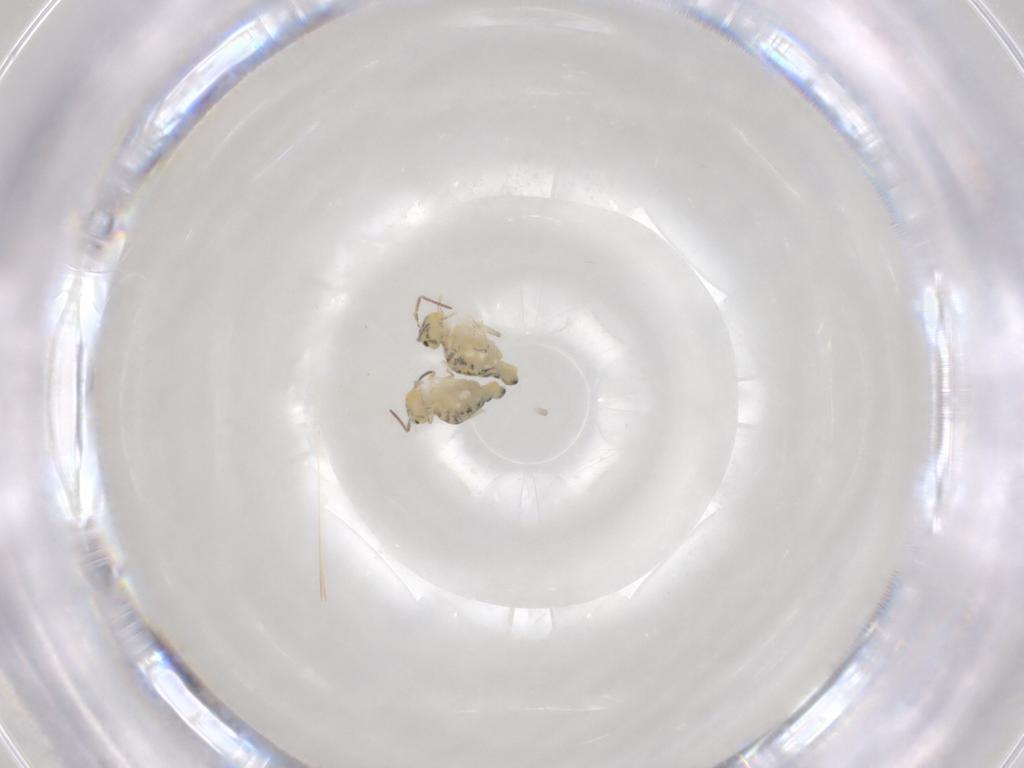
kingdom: Animalia
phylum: Arthropoda
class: Collembola
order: Symphypleona
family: Bourletiellidae
